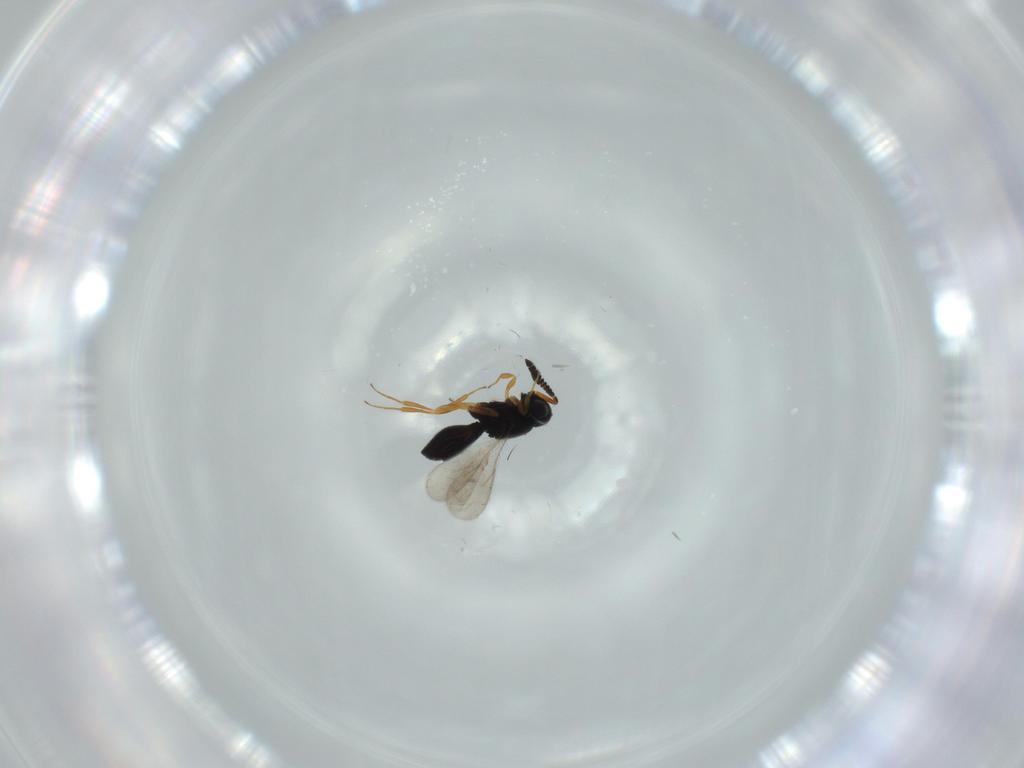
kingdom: Animalia
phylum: Arthropoda
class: Insecta
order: Hymenoptera
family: Scelionidae
